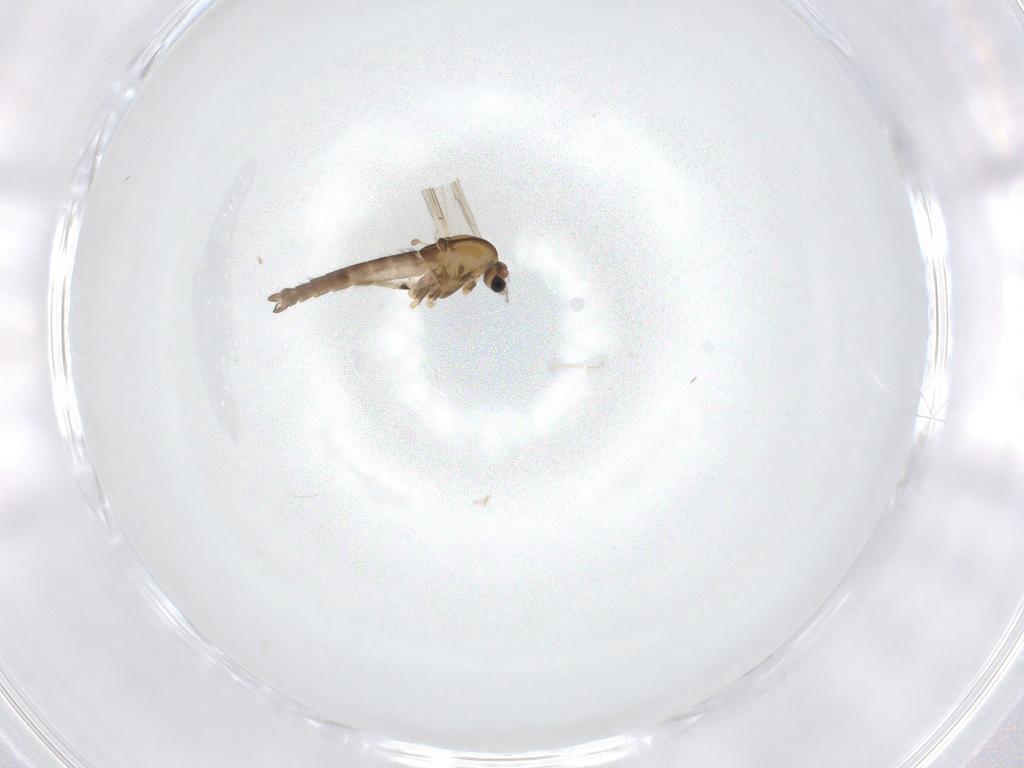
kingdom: Animalia
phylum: Arthropoda
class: Insecta
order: Diptera
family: Chironomidae
